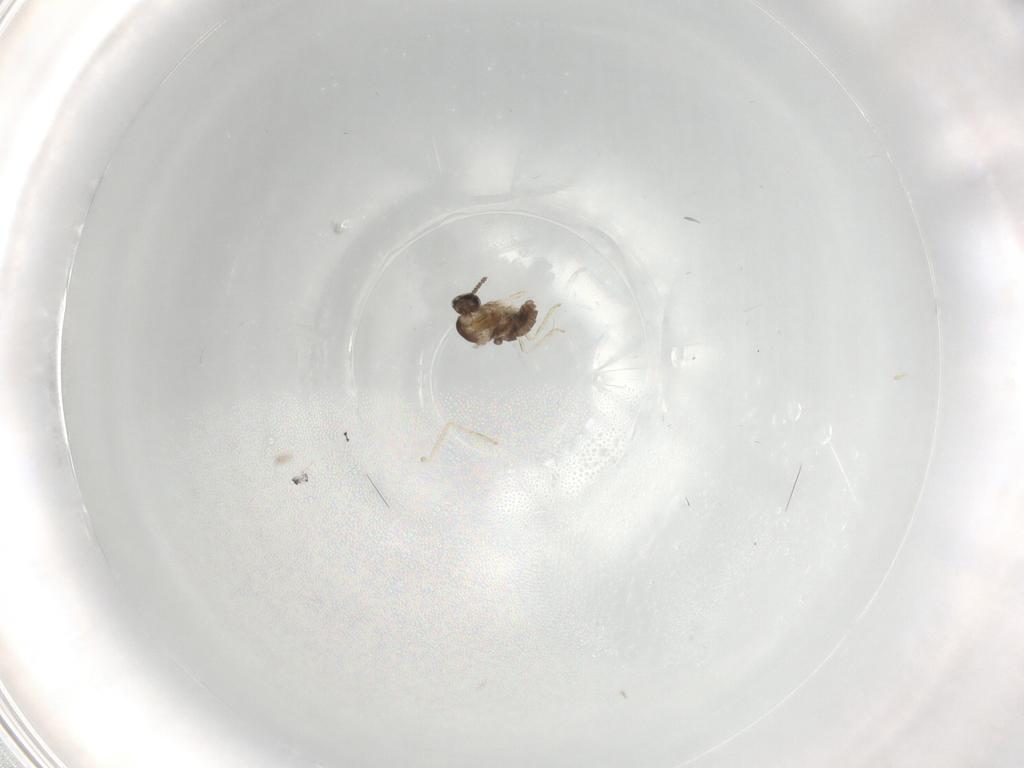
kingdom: Animalia
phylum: Arthropoda
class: Insecta
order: Diptera
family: Cecidomyiidae
